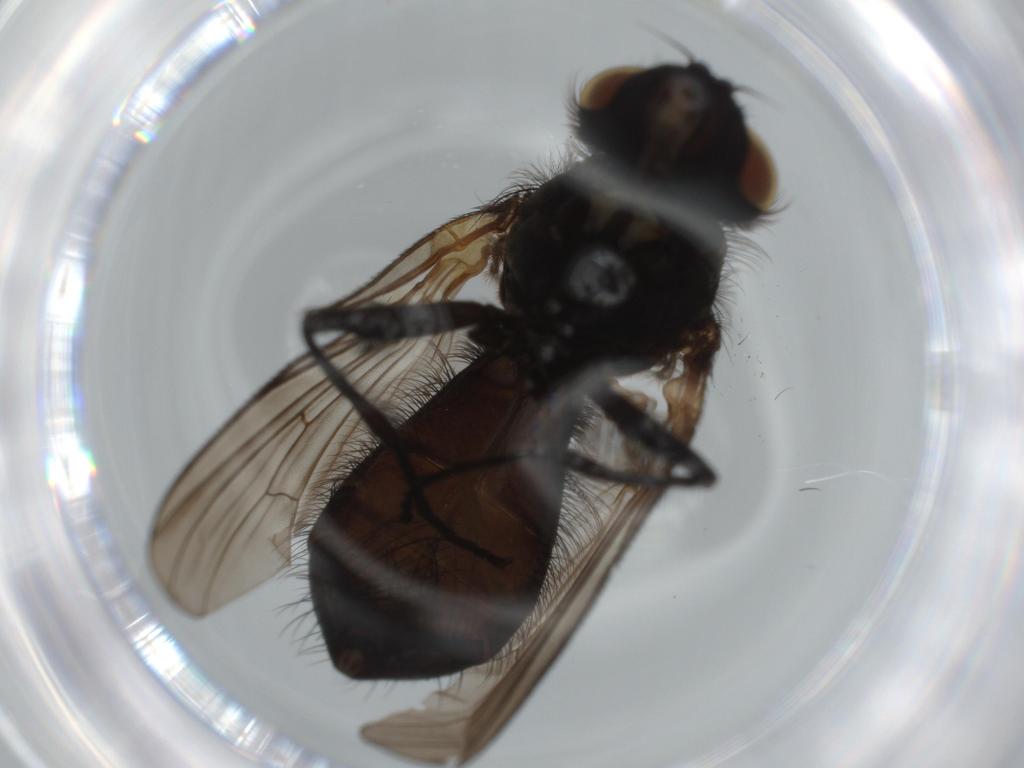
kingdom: Animalia
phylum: Arthropoda
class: Insecta
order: Diptera
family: Fannia
